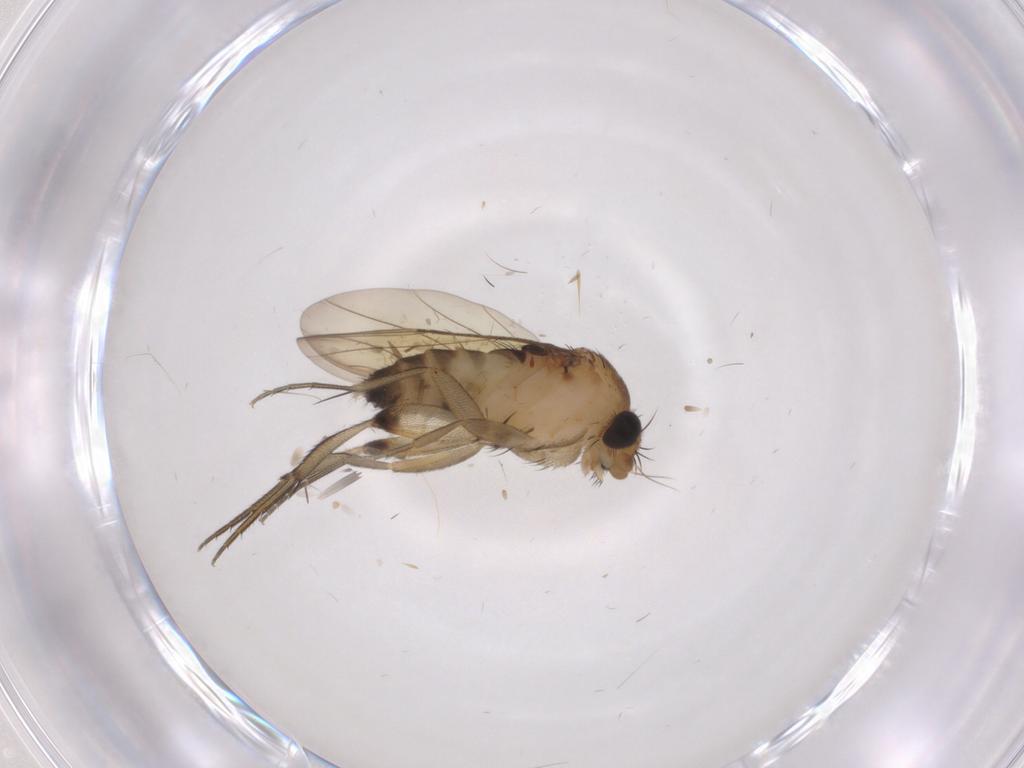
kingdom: Animalia
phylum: Arthropoda
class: Insecta
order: Diptera
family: Phoridae
